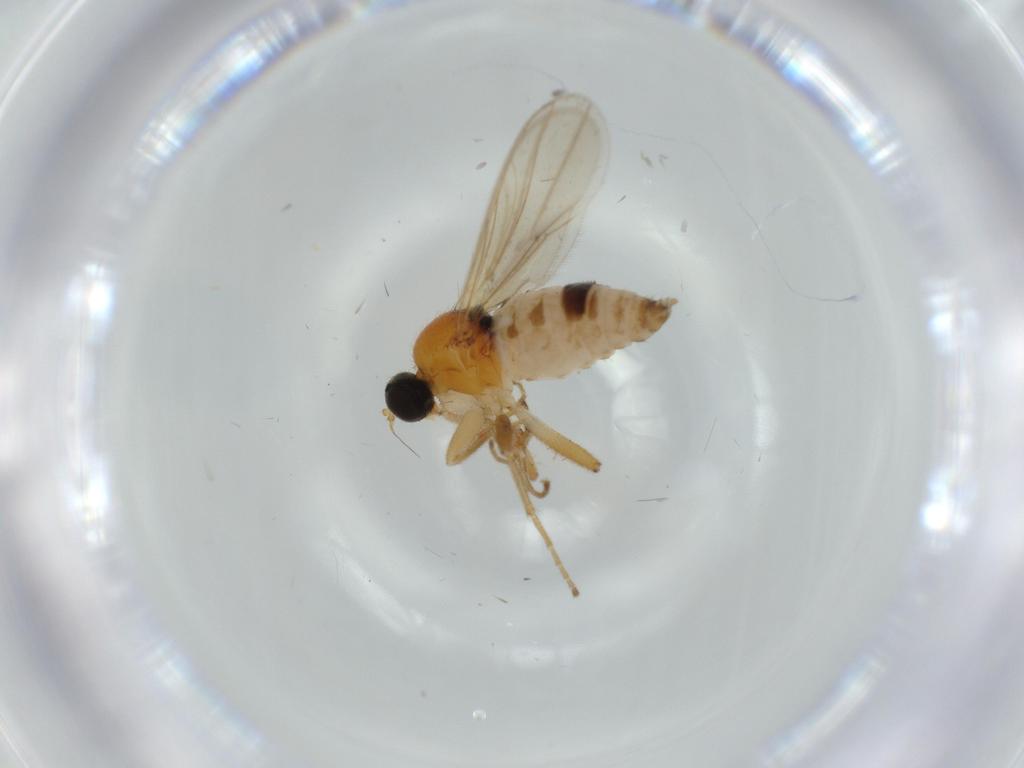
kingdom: Animalia
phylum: Arthropoda
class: Insecta
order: Diptera
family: Hybotidae
